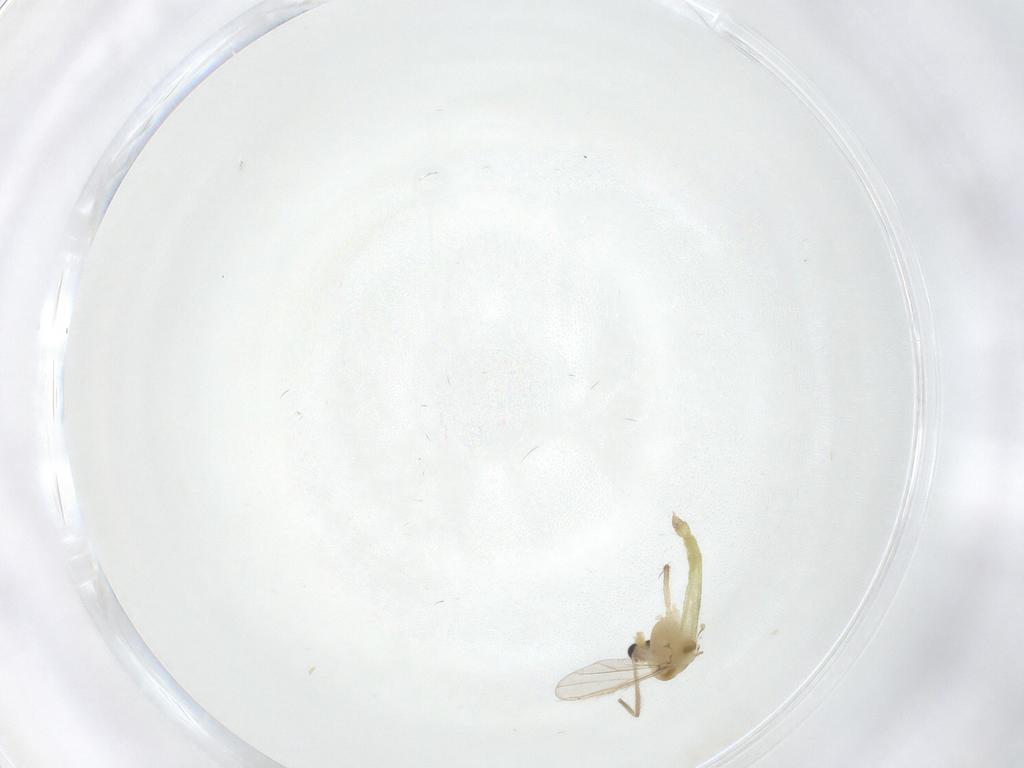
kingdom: Animalia
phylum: Arthropoda
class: Insecta
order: Diptera
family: Chironomidae
